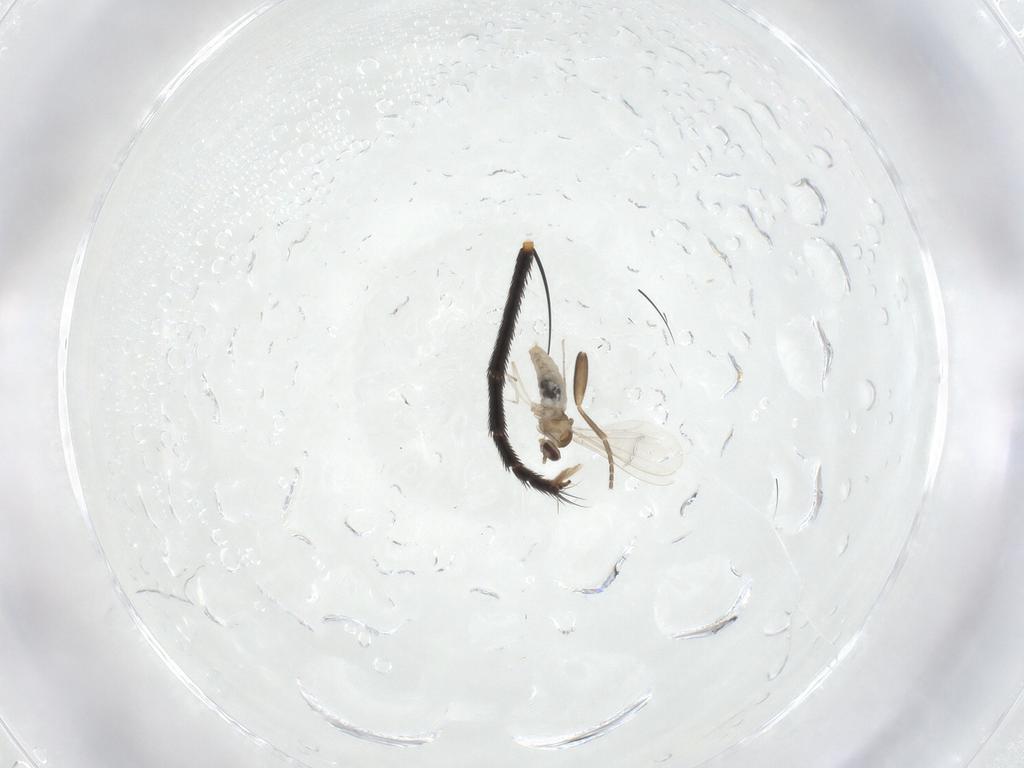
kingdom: Animalia
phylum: Arthropoda
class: Insecta
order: Diptera
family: Cecidomyiidae
